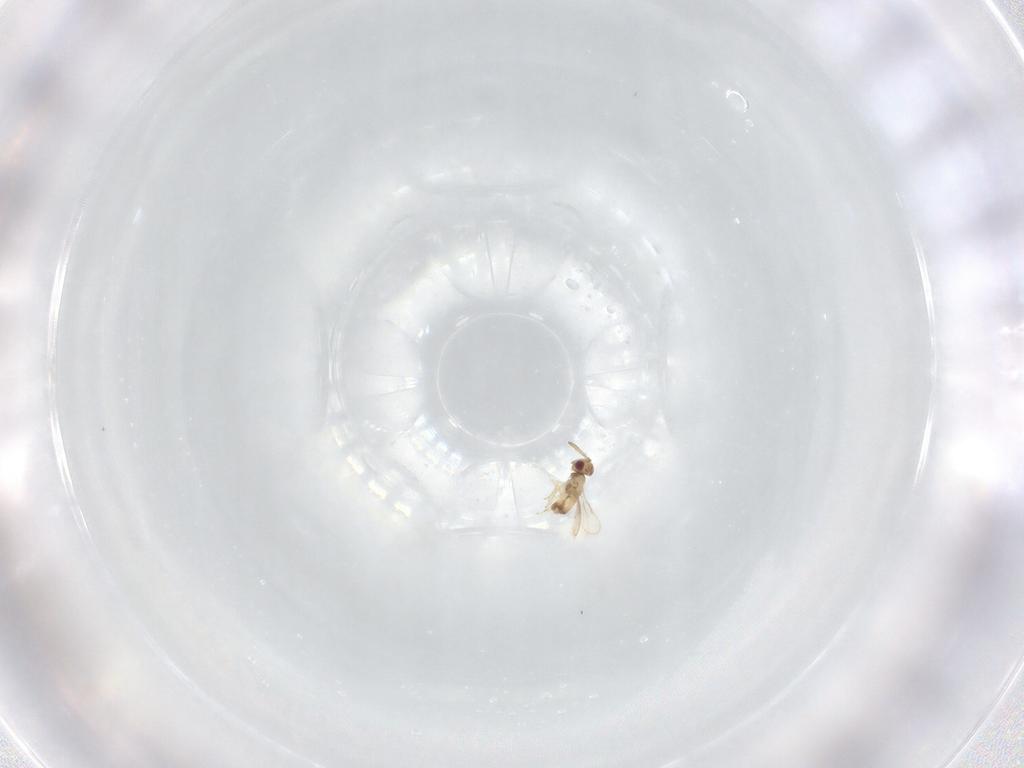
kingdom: Animalia
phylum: Arthropoda
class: Insecta
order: Hymenoptera
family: Aphelinidae
